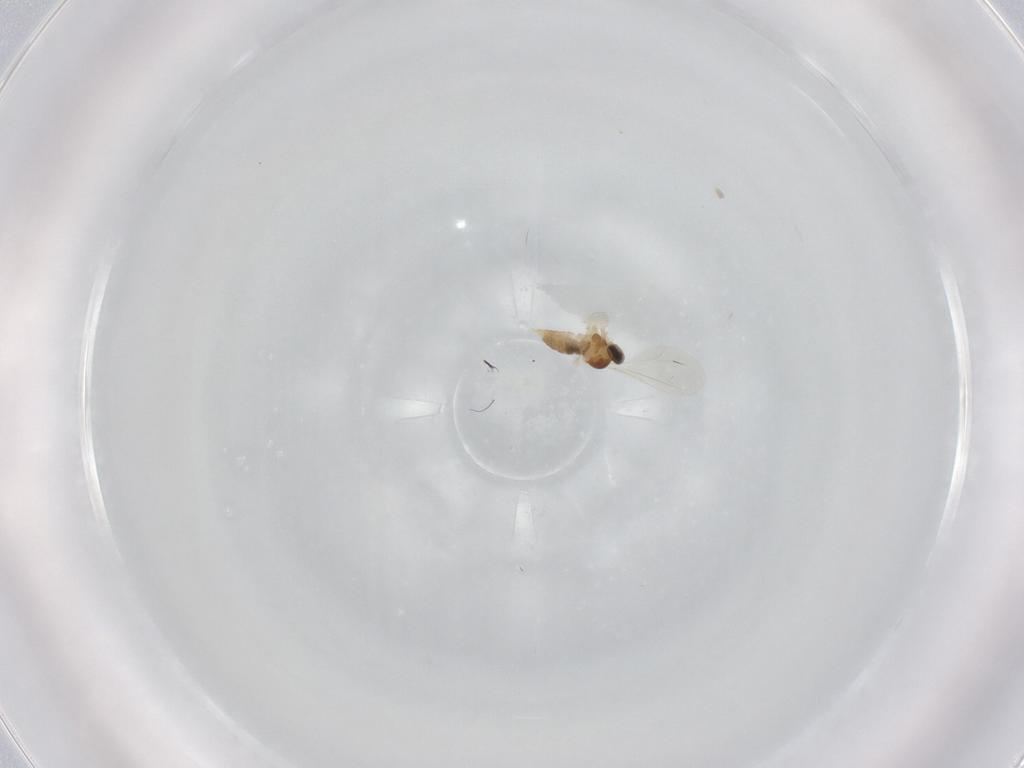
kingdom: Animalia
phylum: Arthropoda
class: Insecta
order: Diptera
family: Cecidomyiidae
